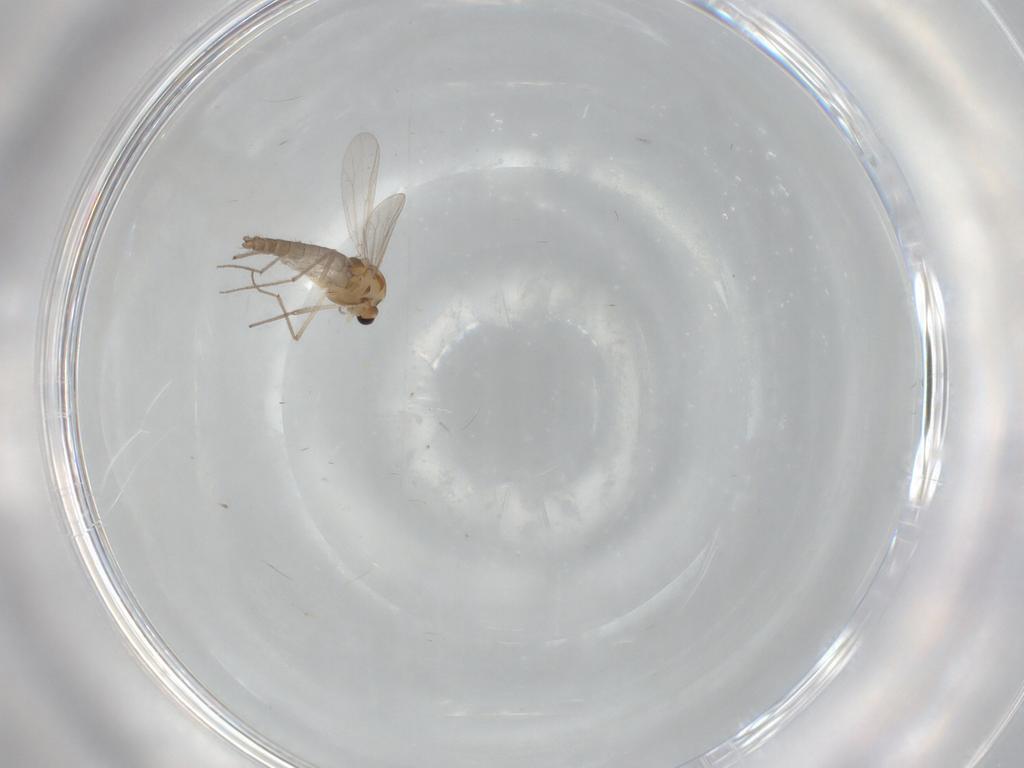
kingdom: Animalia
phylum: Arthropoda
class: Insecta
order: Diptera
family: Chironomidae
